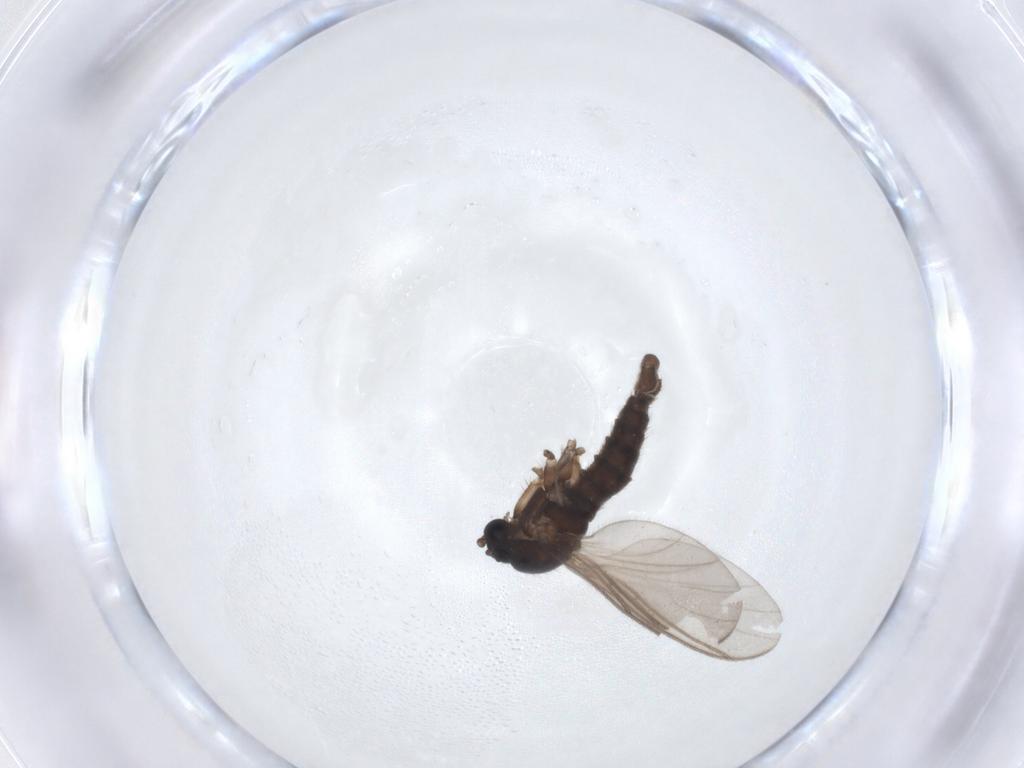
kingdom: Animalia
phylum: Arthropoda
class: Insecta
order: Diptera
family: Sciaridae
